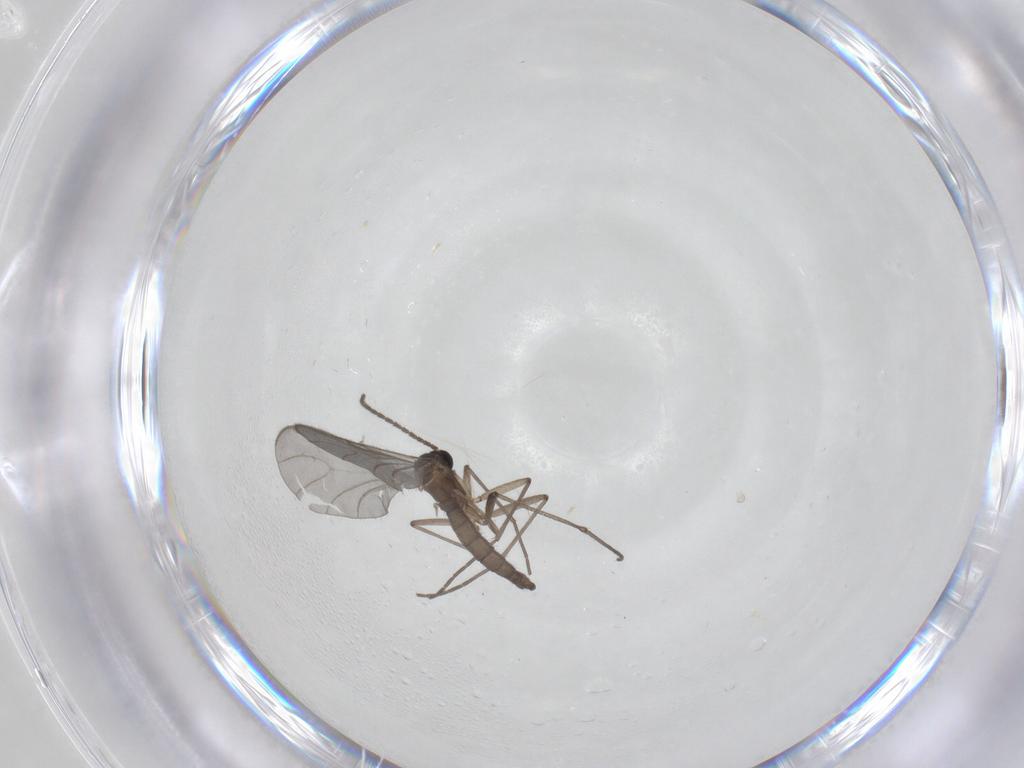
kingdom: Animalia
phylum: Arthropoda
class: Insecta
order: Diptera
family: Sciaridae
